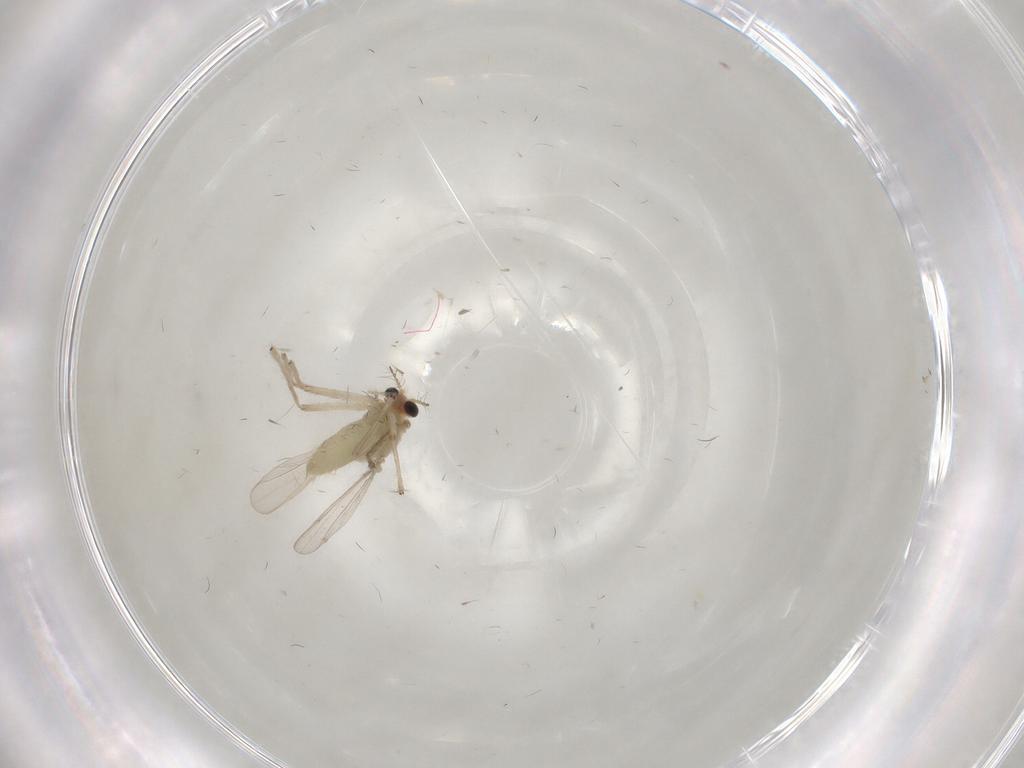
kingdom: Animalia
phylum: Arthropoda
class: Insecta
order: Diptera
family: Chironomidae
